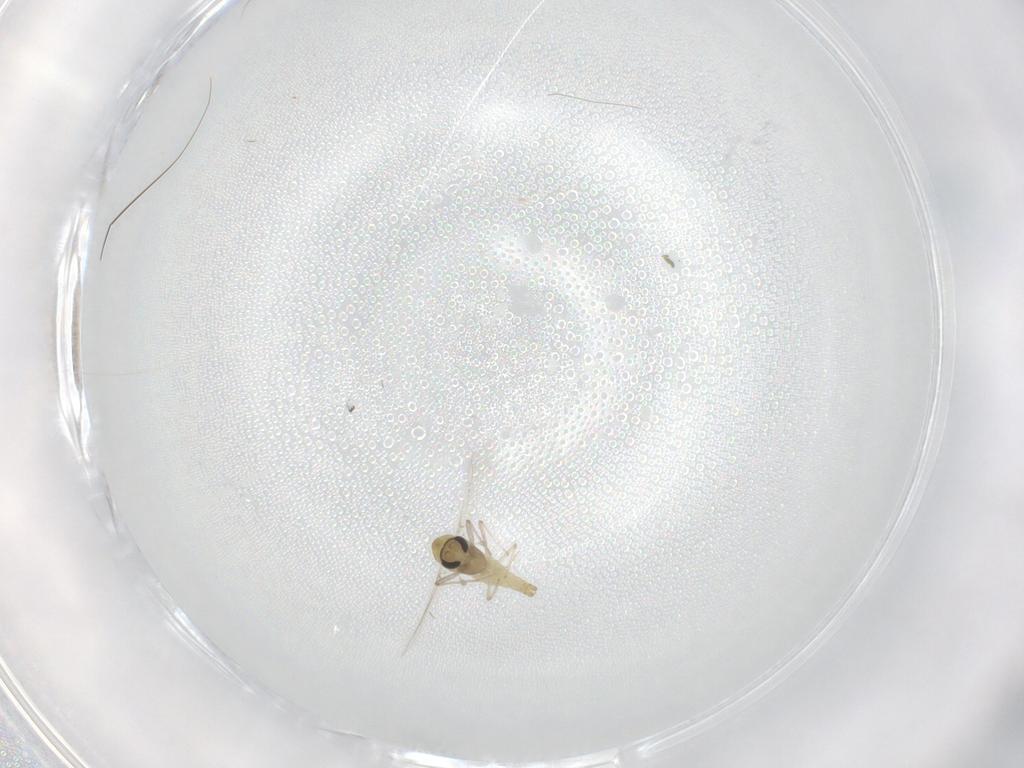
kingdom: Animalia
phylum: Arthropoda
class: Insecta
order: Diptera
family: Chironomidae
